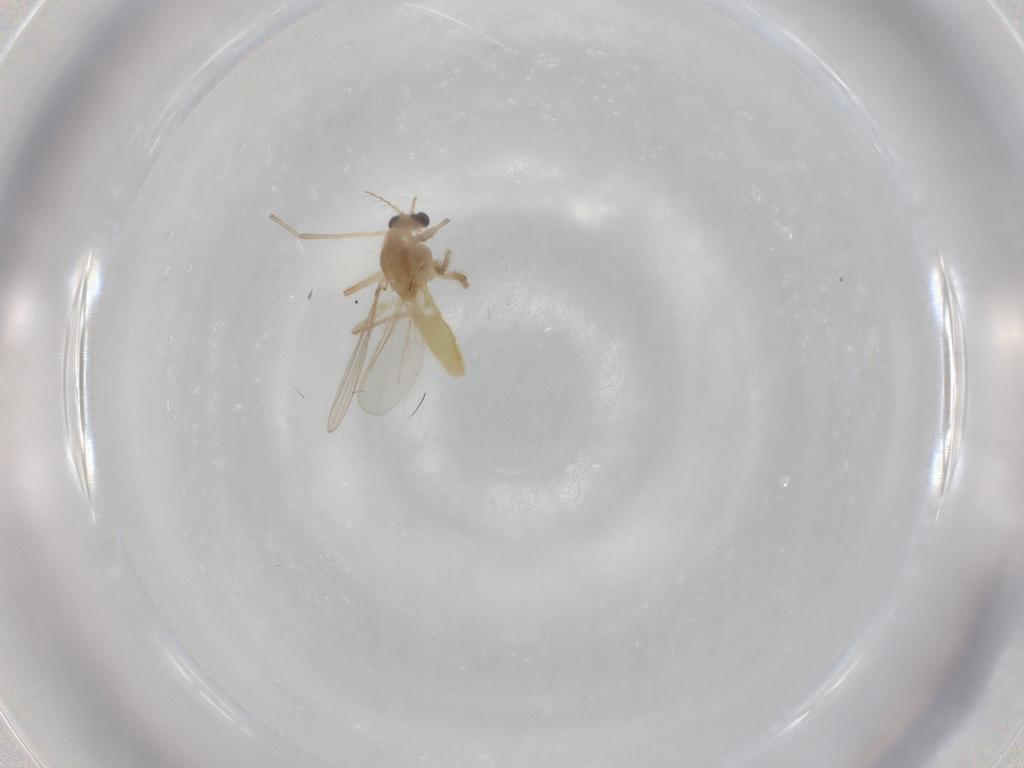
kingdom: Animalia
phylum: Arthropoda
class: Insecta
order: Diptera
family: Chironomidae
